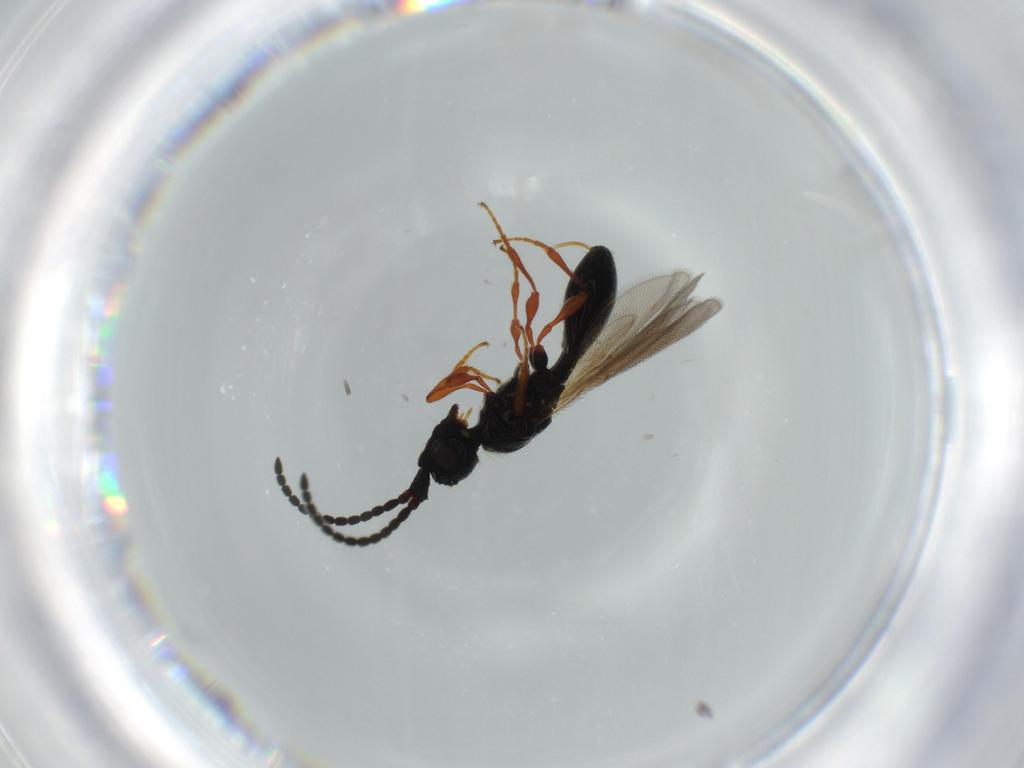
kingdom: Animalia
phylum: Arthropoda
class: Insecta
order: Hymenoptera
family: Diapriidae
